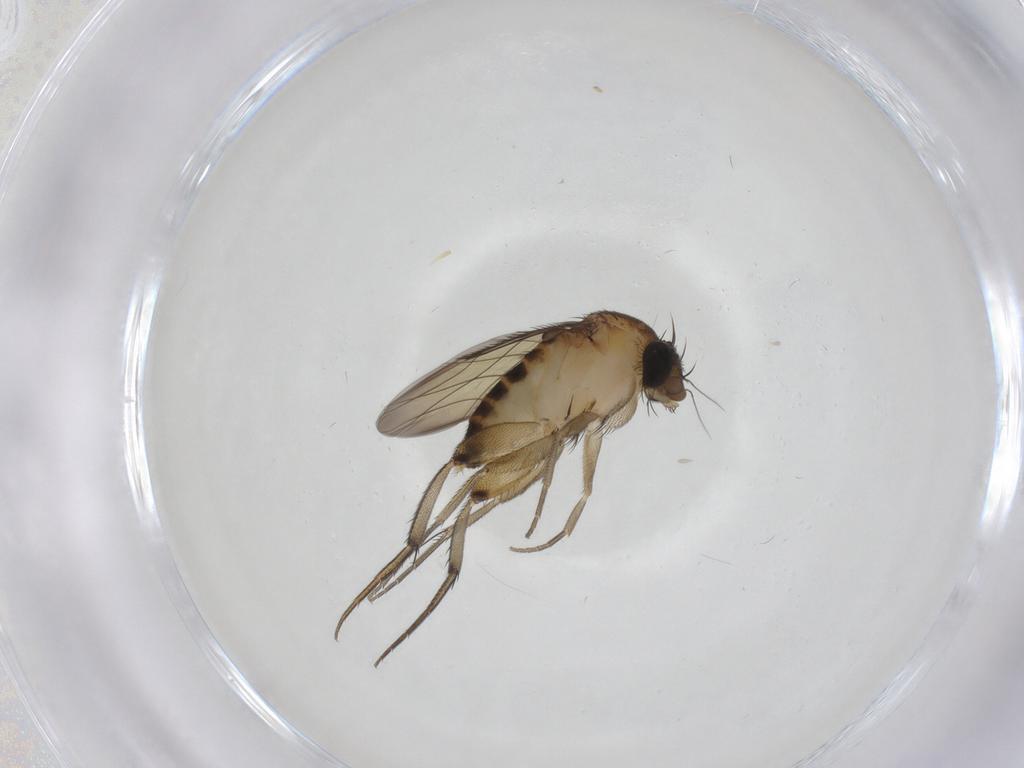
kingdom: Animalia
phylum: Arthropoda
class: Insecta
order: Diptera
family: Phoridae
